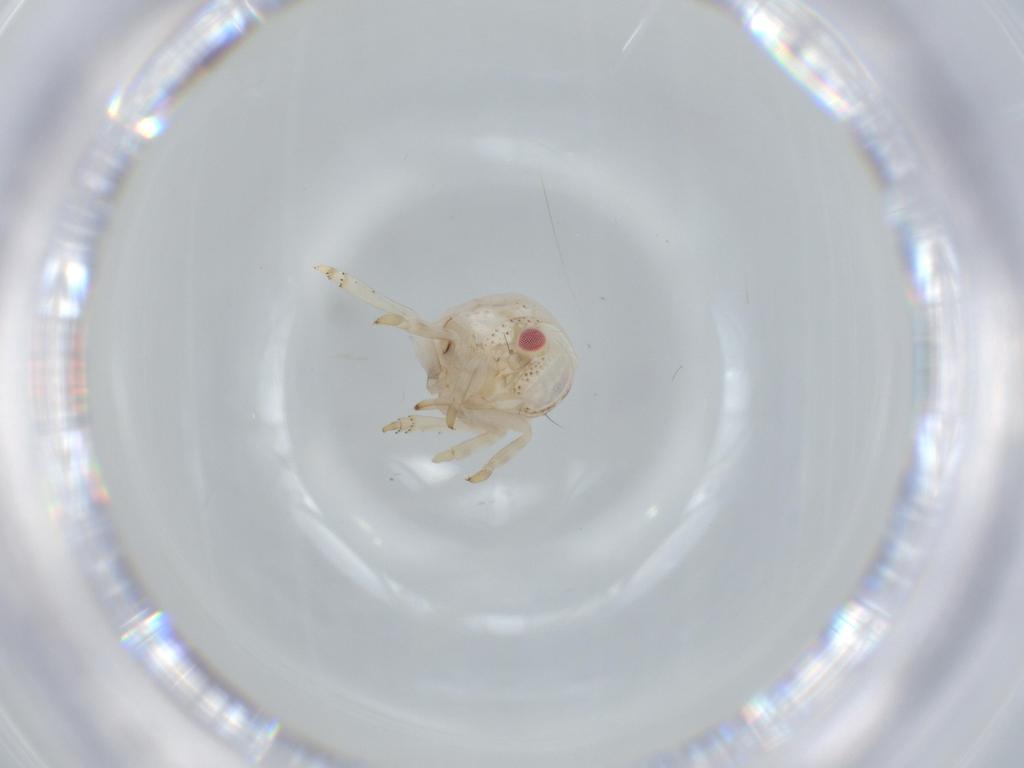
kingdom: Animalia
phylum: Arthropoda
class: Insecta
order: Hemiptera
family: Acanaloniidae
